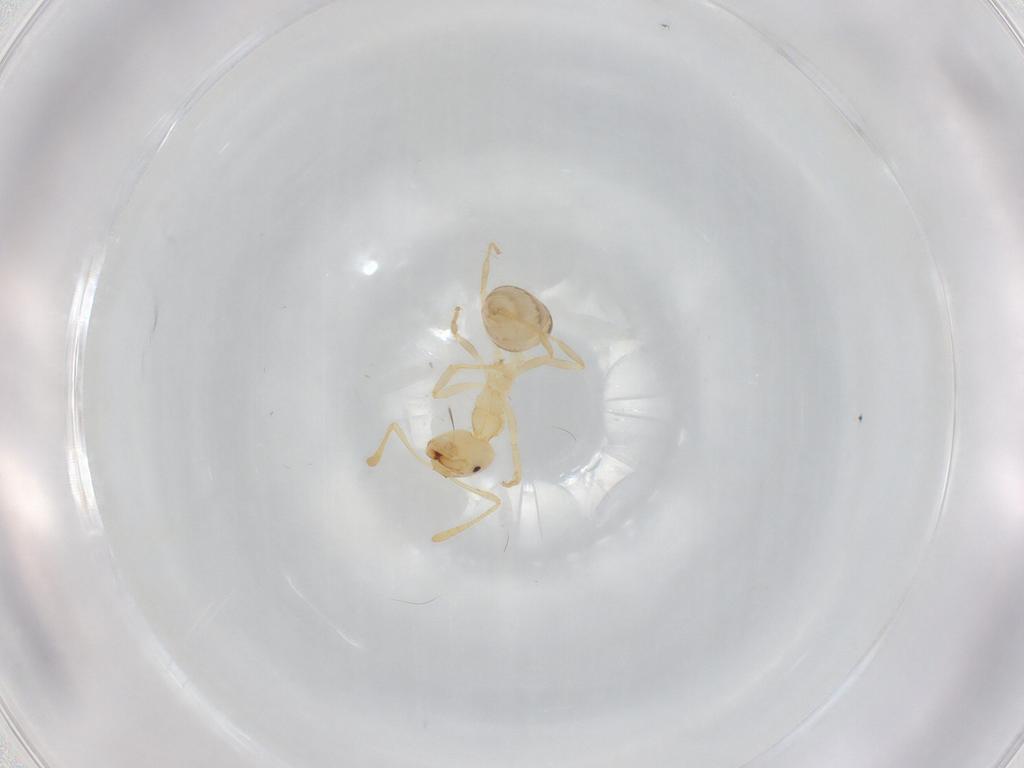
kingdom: Animalia
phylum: Arthropoda
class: Insecta
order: Hymenoptera
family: Formicidae
